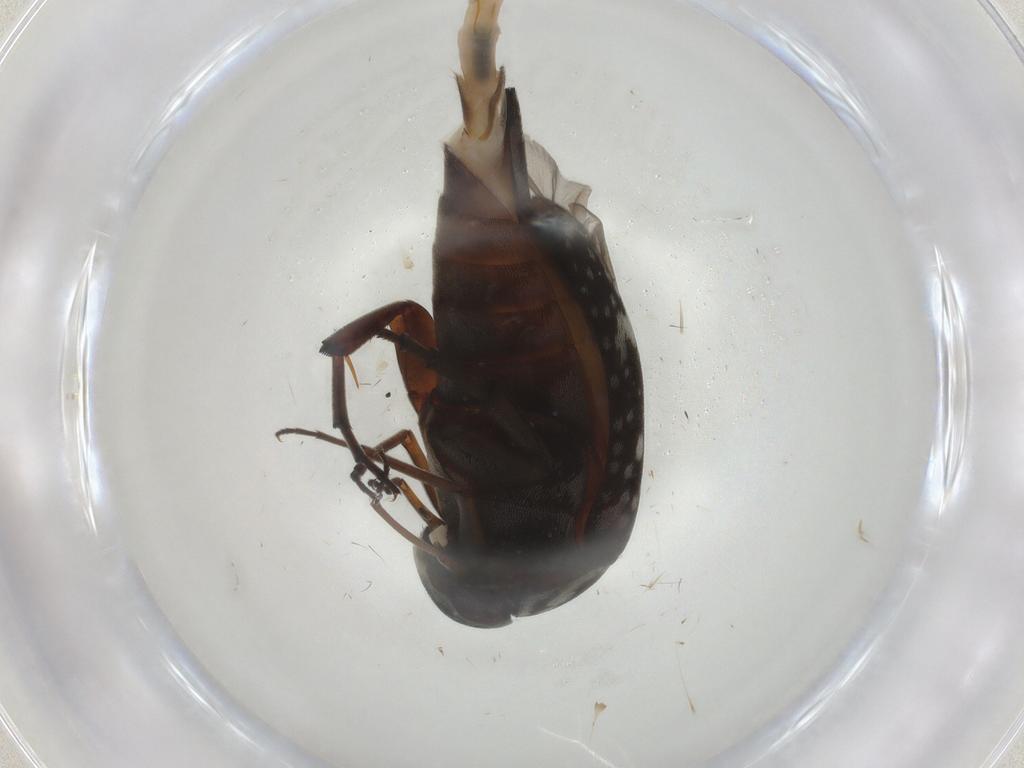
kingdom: Animalia
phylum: Arthropoda
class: Insecta
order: Coleoptera
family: Mordellidae
